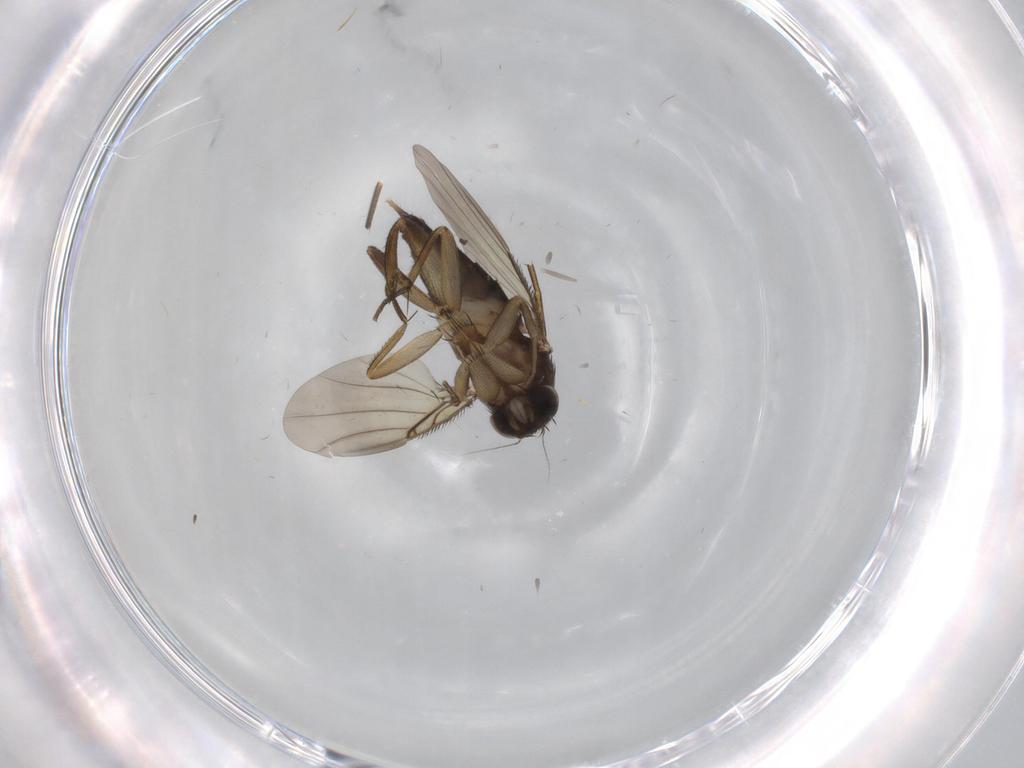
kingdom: Animalia
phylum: Arthropoda
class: Insecta
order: Diptera
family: Phoridae
